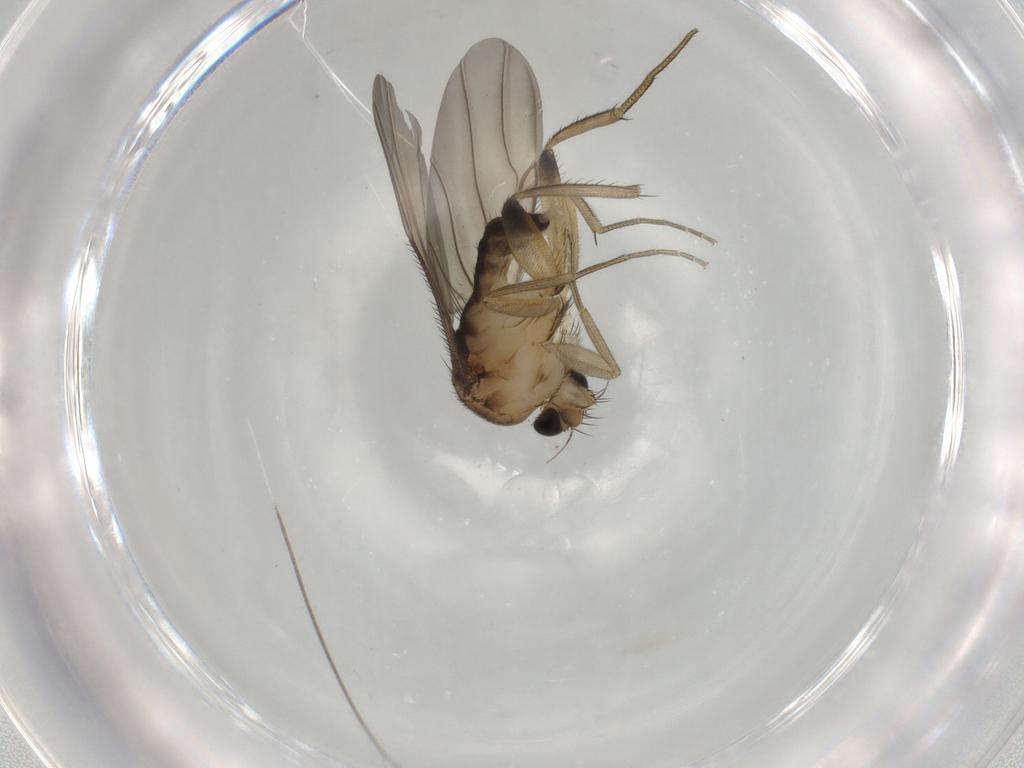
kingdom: Animalia
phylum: Arthropoda
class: Insecta
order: Diptera
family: Phoridae
